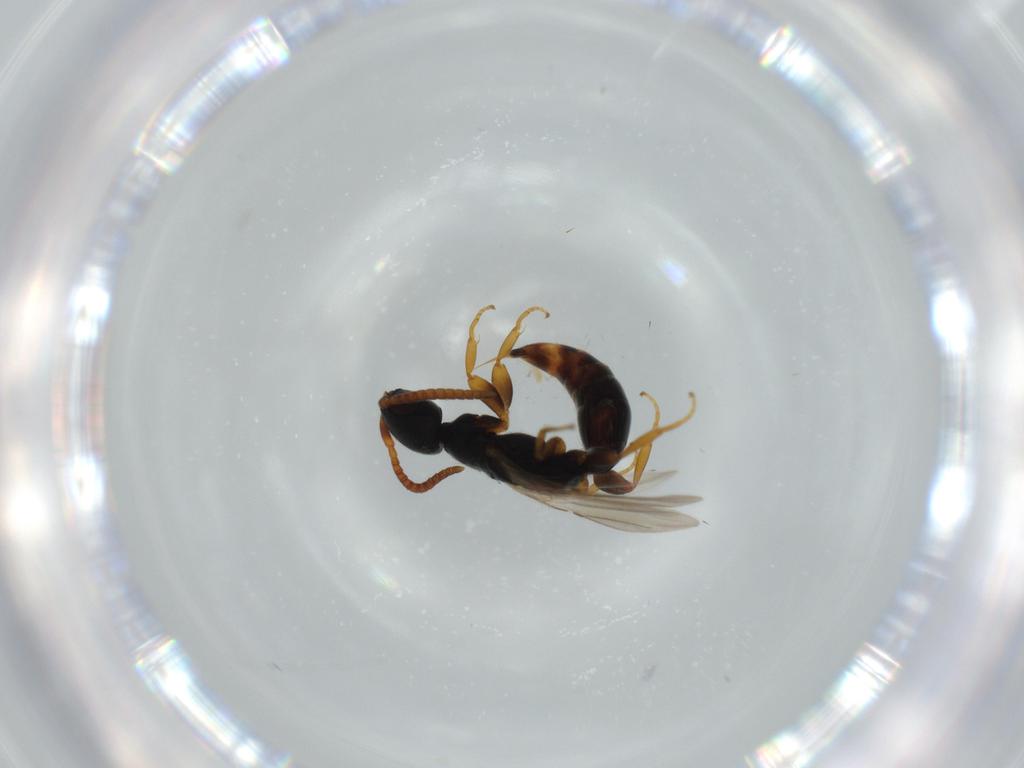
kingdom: Animalia
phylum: Arthropoda
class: Insecta
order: Hymenoptera
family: Bethylidae
